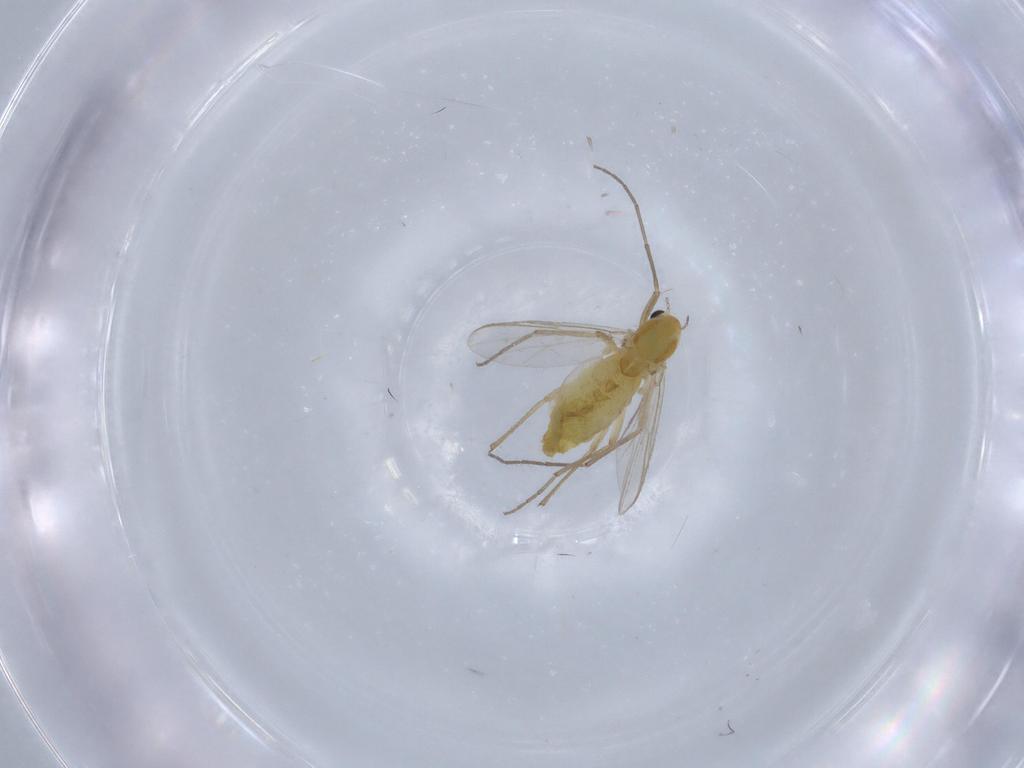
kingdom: Animalia
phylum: Arthropoda
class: Insecta
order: Diptera
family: Chironomidae
